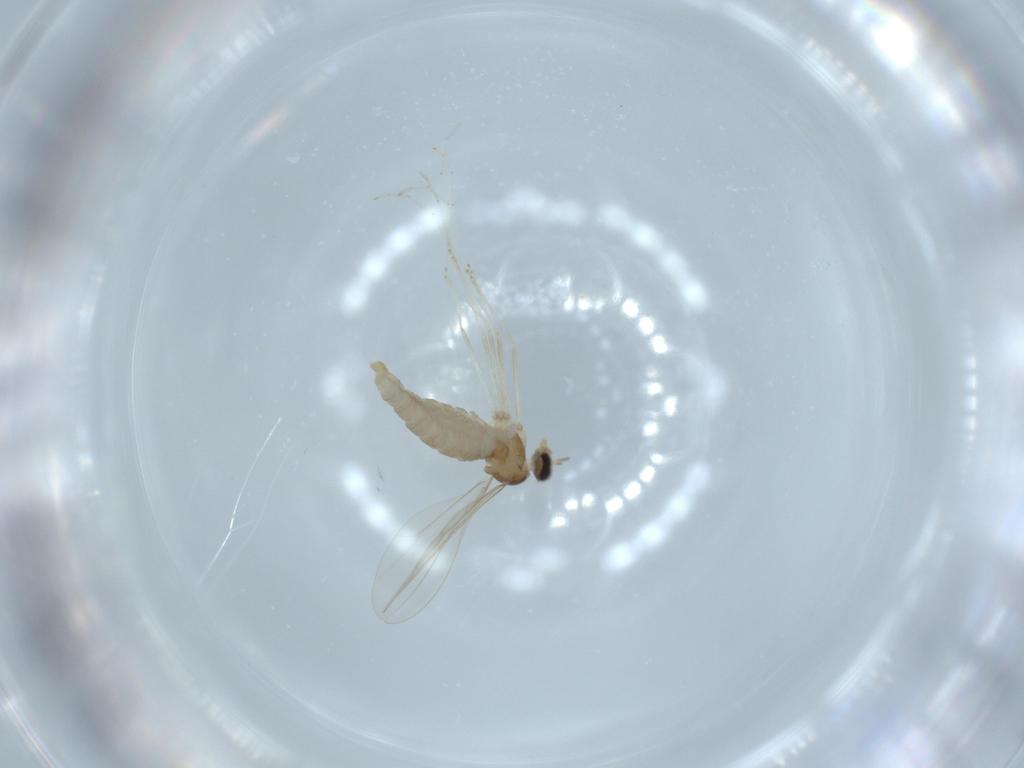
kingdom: Animalia
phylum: Arthropoda
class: Insecta
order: Diptera
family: Cecidomyiidae
